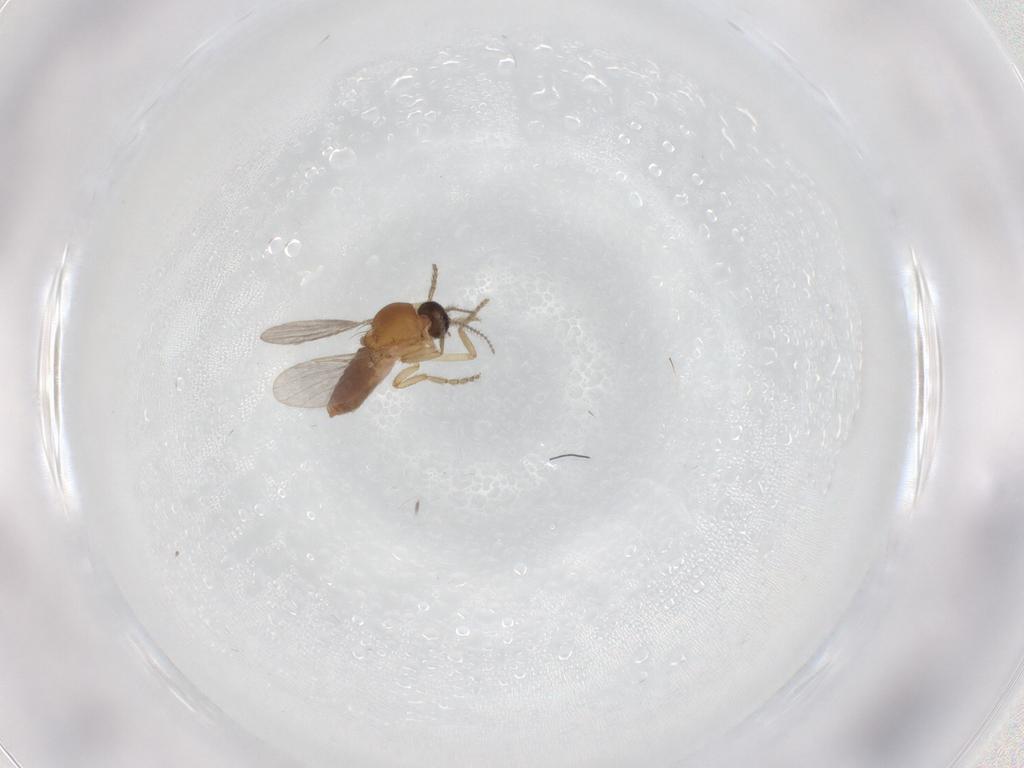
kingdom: Animalia
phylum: Arthropoda
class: Insecta
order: Diptera
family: Ceratopogonidae
